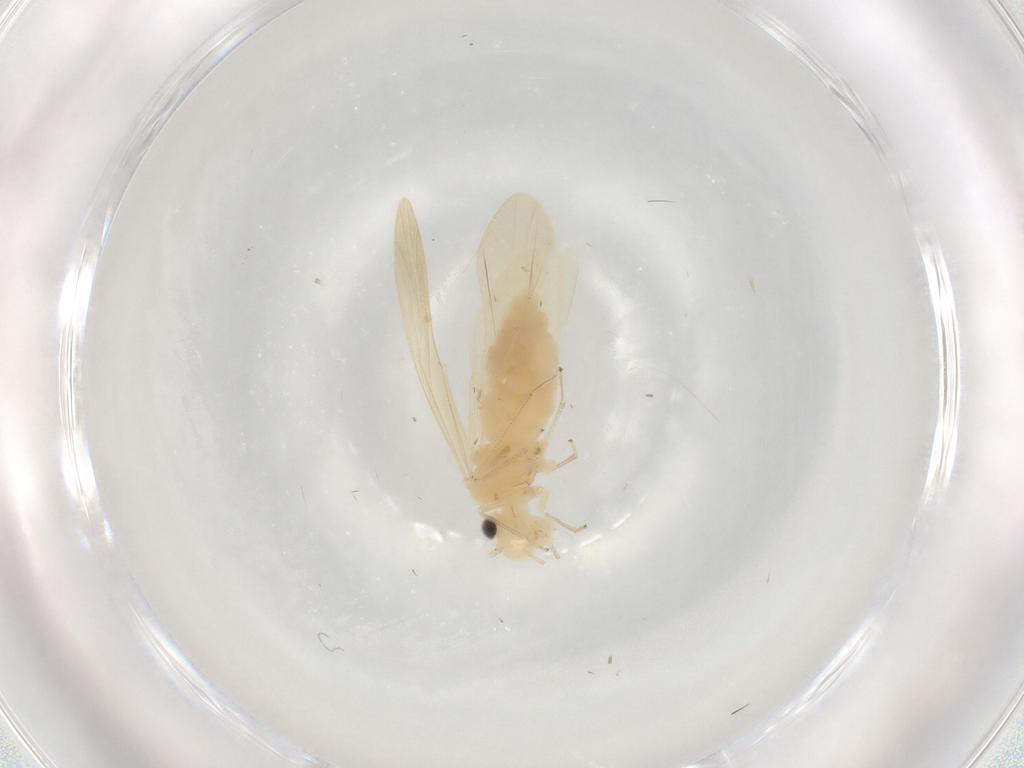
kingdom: Animalia
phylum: Arthropoda
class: Insecta
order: Psocodea
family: Caeciliusidae
